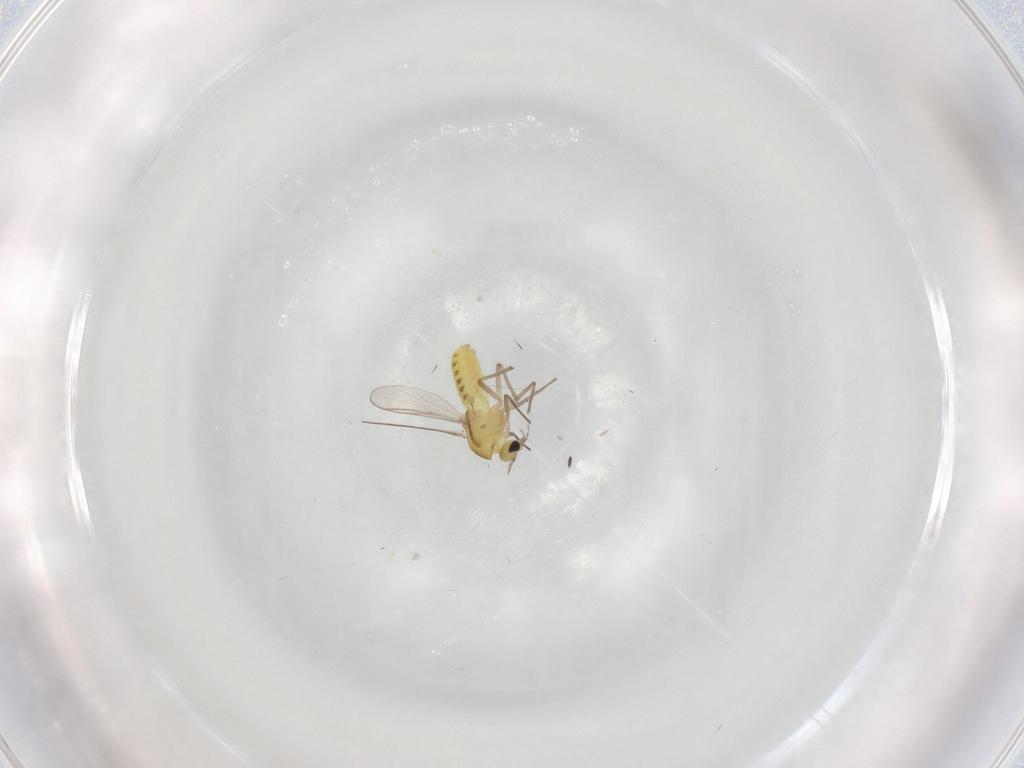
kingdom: Animalia
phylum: Arthropoda
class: Insecta
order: Diptera
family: Chironomidae
